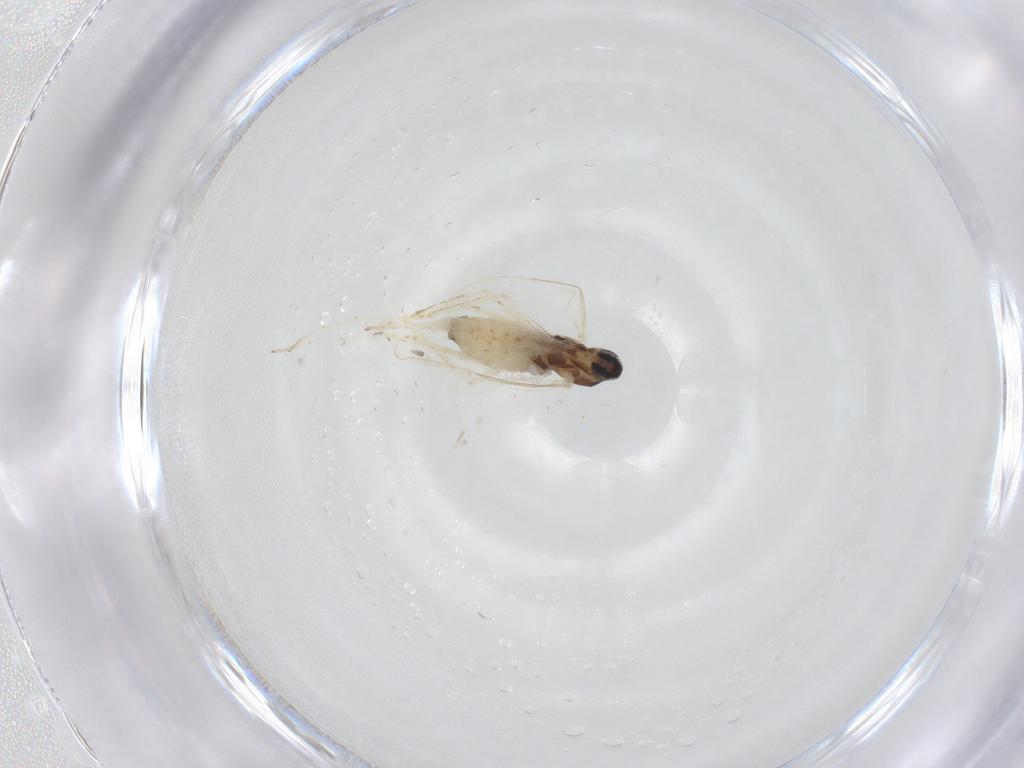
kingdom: Animalia
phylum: Arthropoda
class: Insecta
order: Diptera
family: Cecidomyiidae
